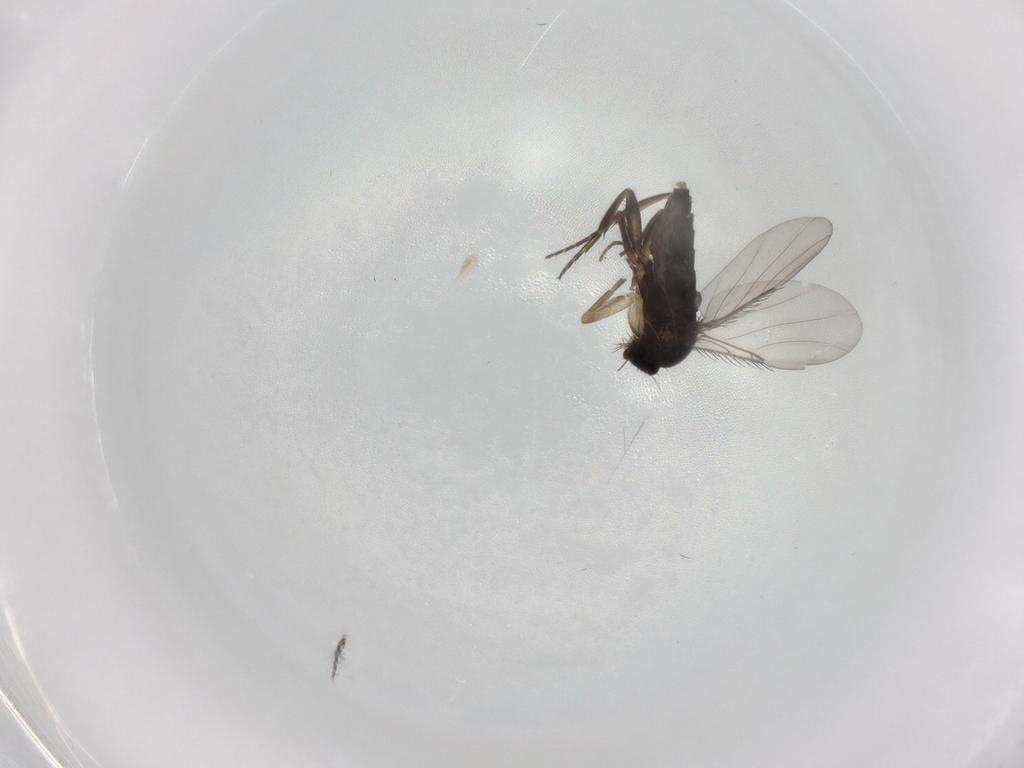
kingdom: Animalia
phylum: Arthropoda
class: Insecta
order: Diptera
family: Phoridae
